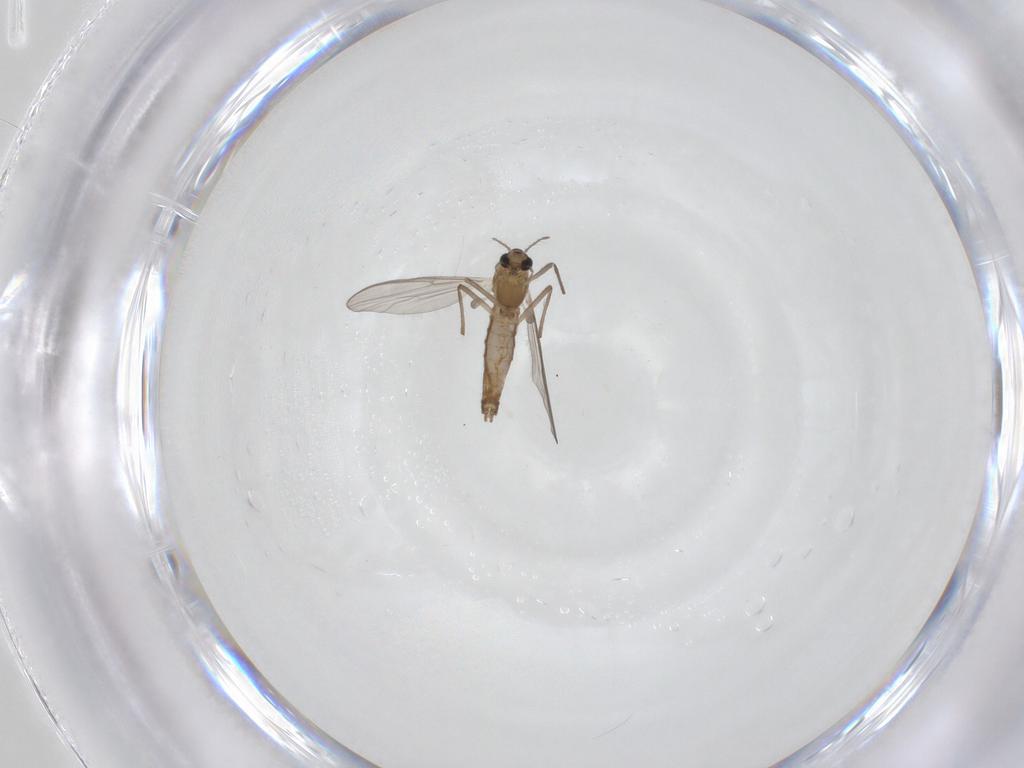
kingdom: Animalia
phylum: Arthropoda
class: Insecta
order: Diptera
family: Chironomidae
